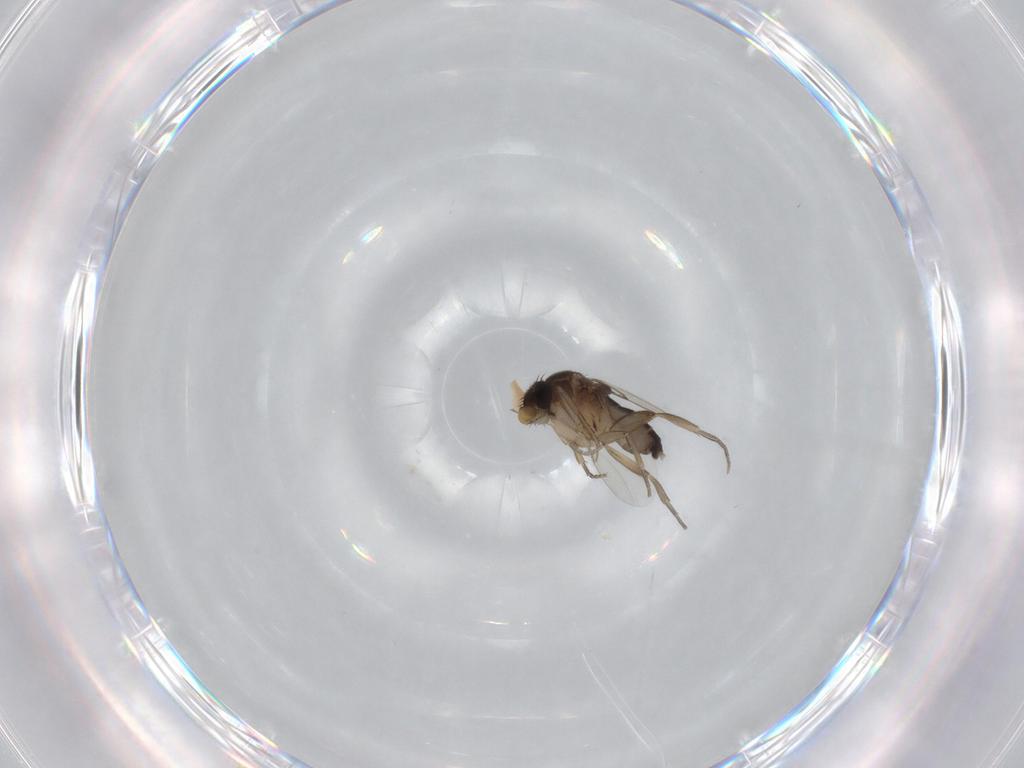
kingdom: Animalia
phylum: Arthropoda
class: Insecta
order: Diptera
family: Phoridae
